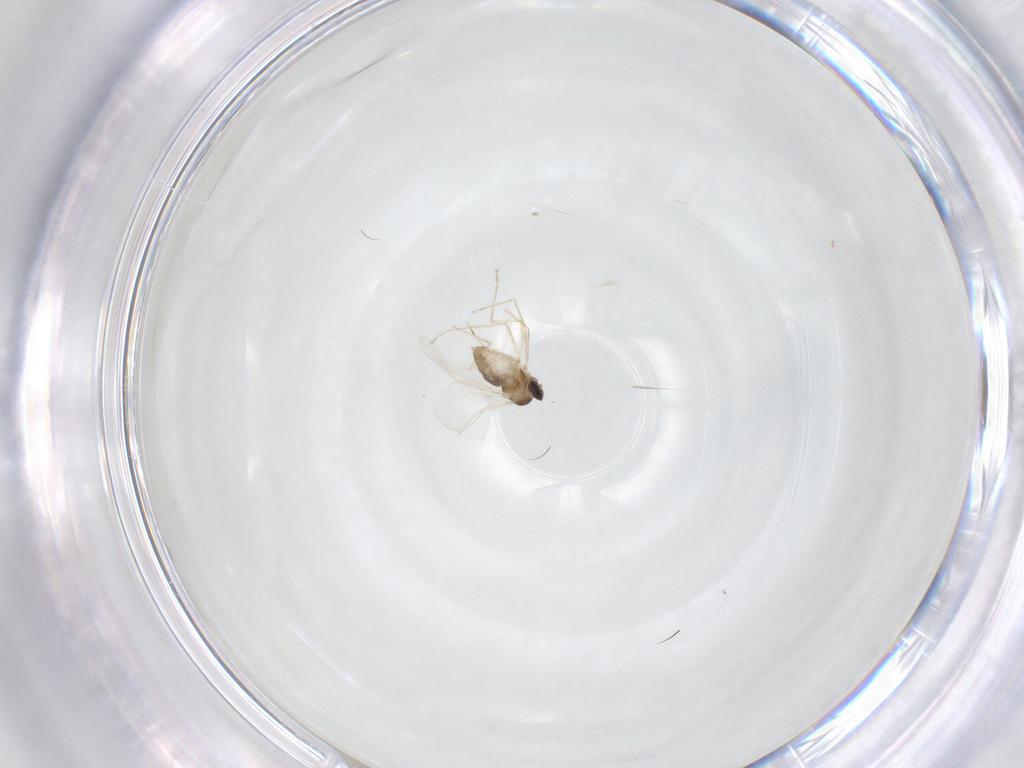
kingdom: Animalia
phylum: Arthropoda
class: Insecta
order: Diptera
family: Cecidomyiidae
